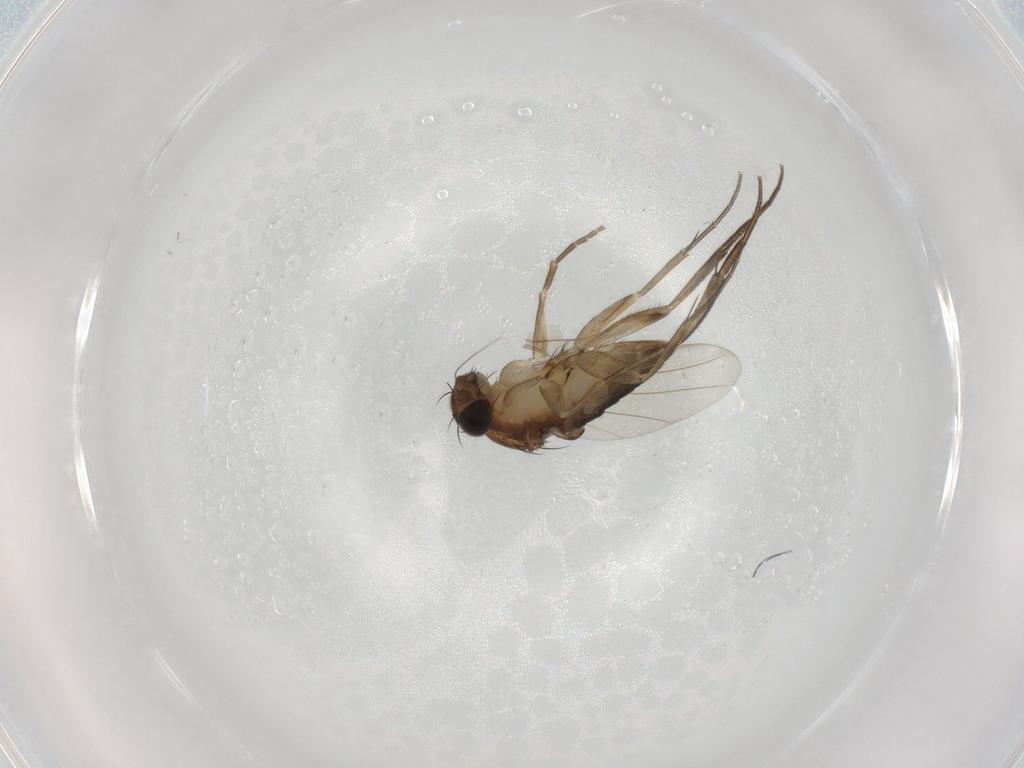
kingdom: Animalia
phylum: Arthropoda
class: Insecta
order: Diptera
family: Phoridae
